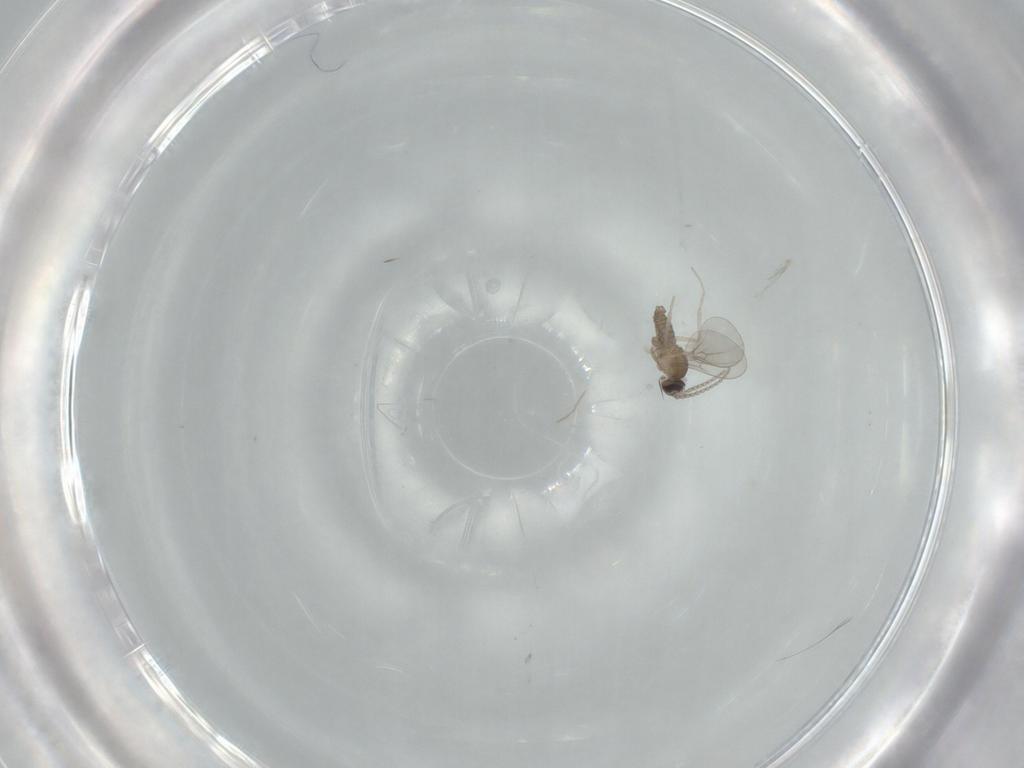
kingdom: Animalia
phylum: Arthropoda
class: Insecta
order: Diptera
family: Cecidomyiidae
